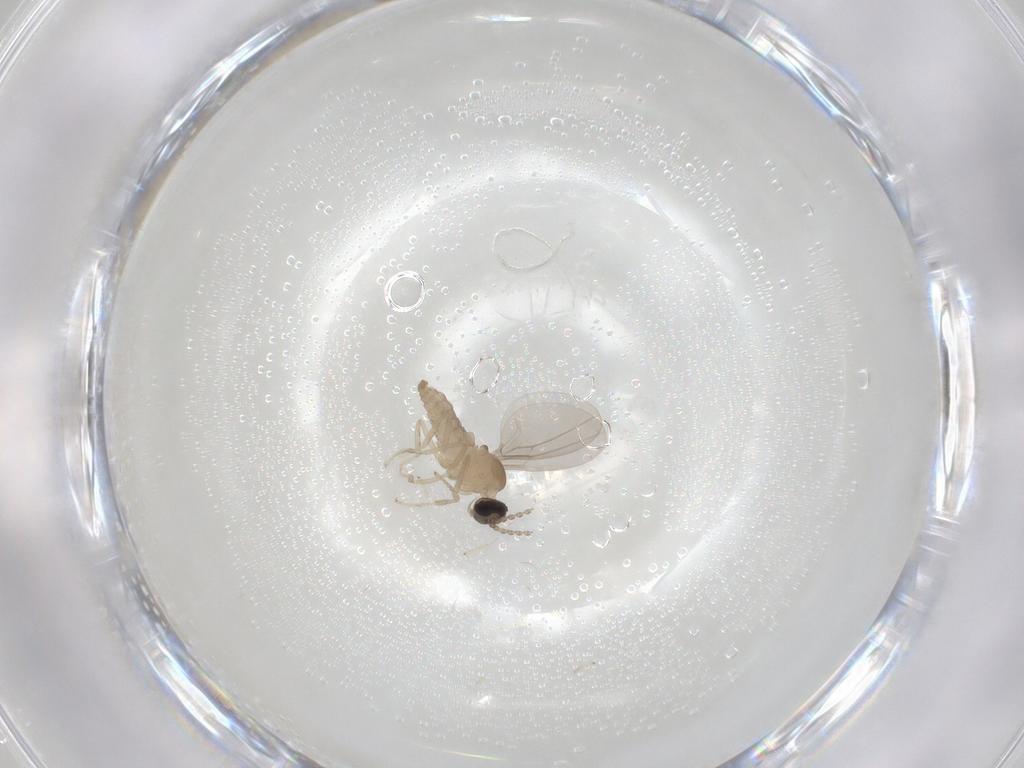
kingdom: Animalia
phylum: Arthropoda
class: Insecta
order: Diptera
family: Cecidomyiidae
